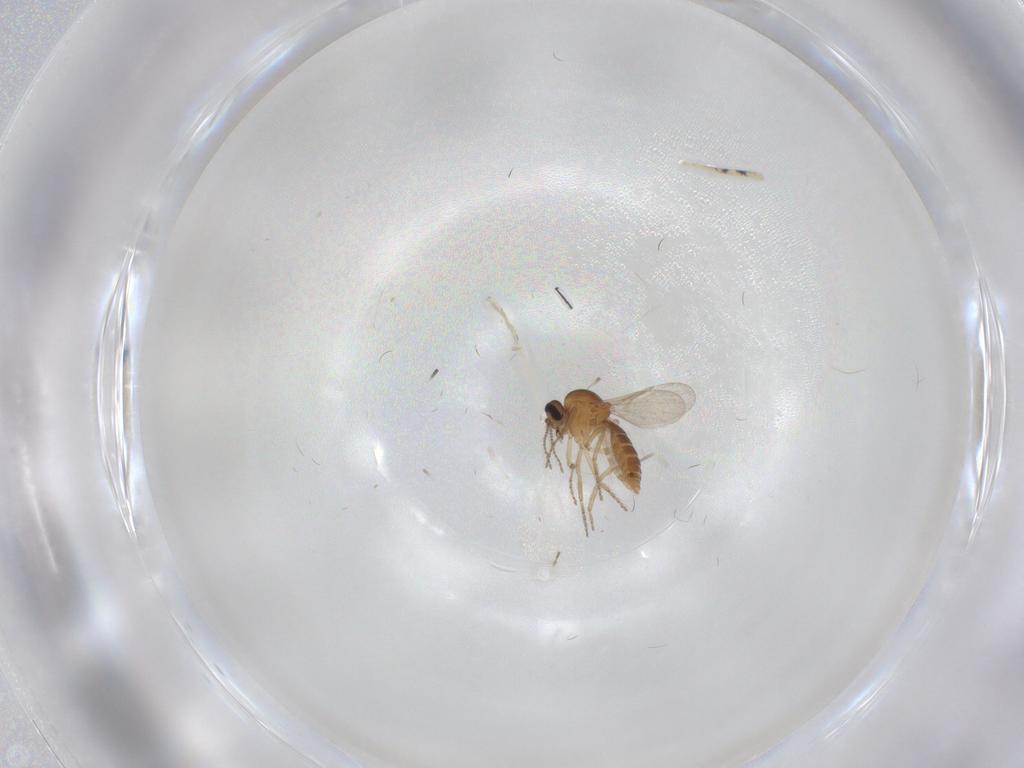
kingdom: Animalia
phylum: Arthropoda
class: Insecta
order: Diptera
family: Ceratopogonidae
